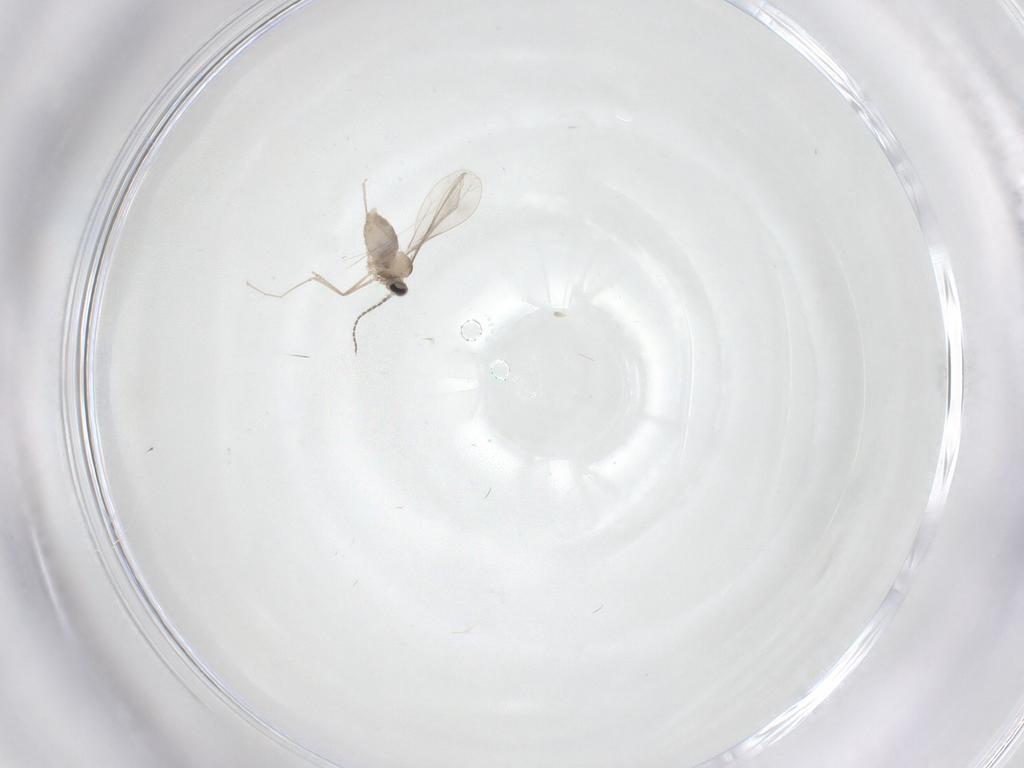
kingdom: Animalia
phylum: Arthropoda
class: Insecta
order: Diptera
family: Cecidomyiidae
